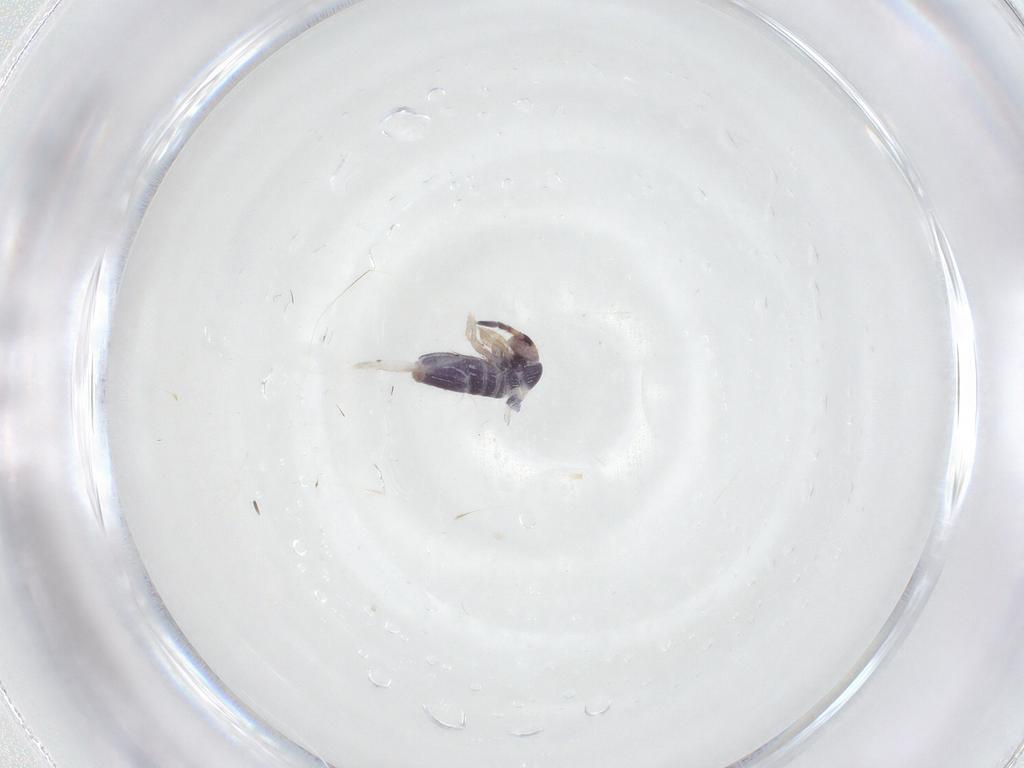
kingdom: Animalia
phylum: Arthropoda
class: Collembola
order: Entomobryomorpha
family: Entomobryidae
